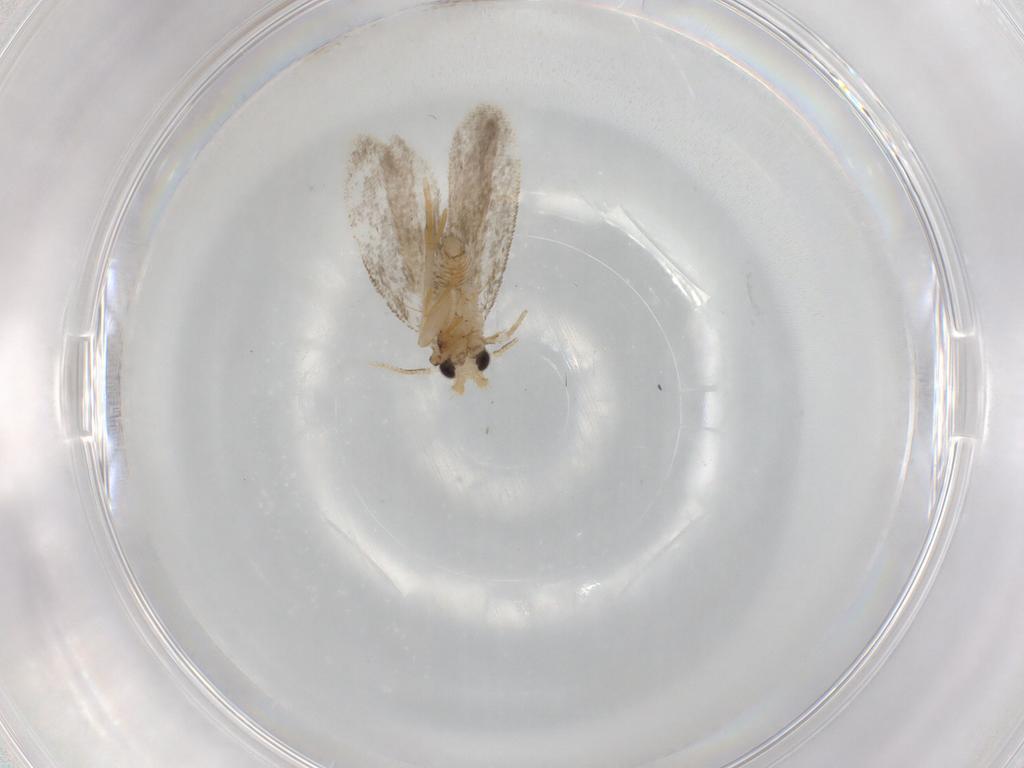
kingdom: Animalia
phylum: Arthropoda
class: Insecta
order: Lepidoptera
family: Psychidae
